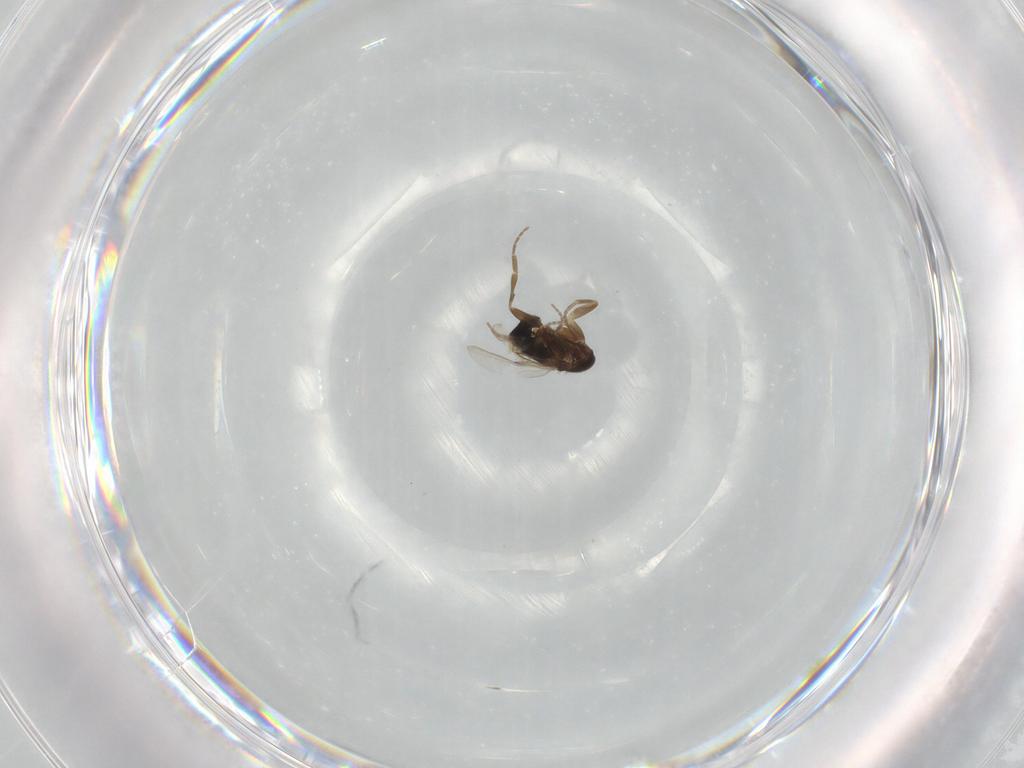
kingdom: Animalia
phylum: Arthropoda
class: Insecta
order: Diptera
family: Phoridae
